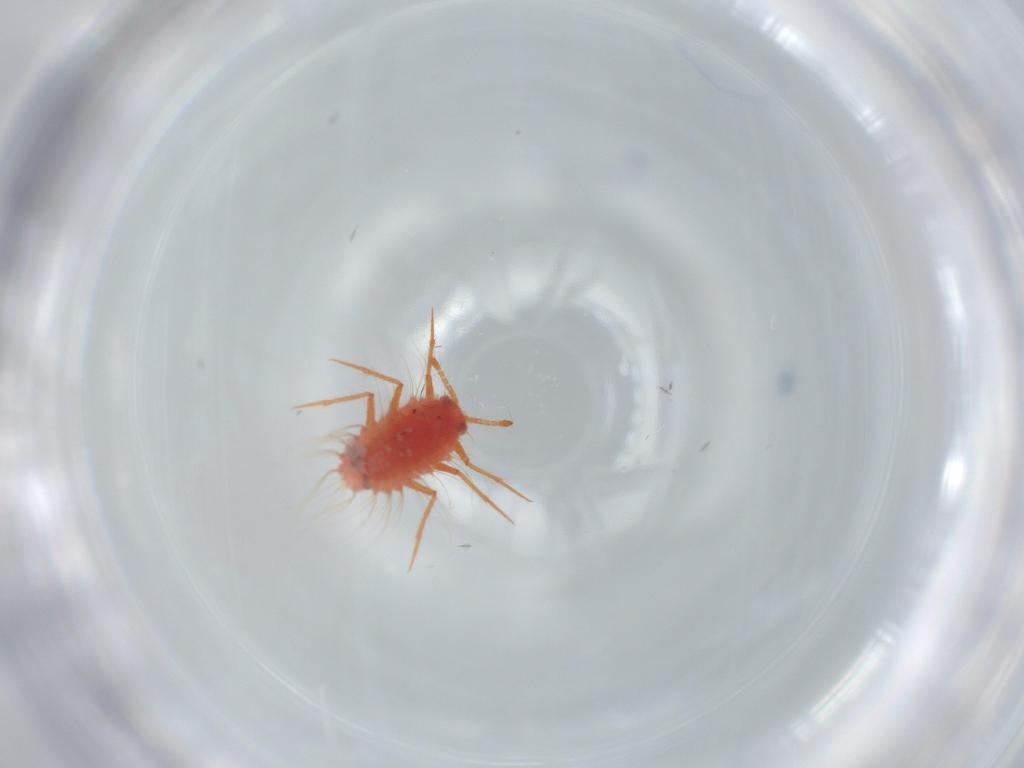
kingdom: Animalia
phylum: Arthropoda
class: Insecta
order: Hemiptera
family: Monophlebidae
